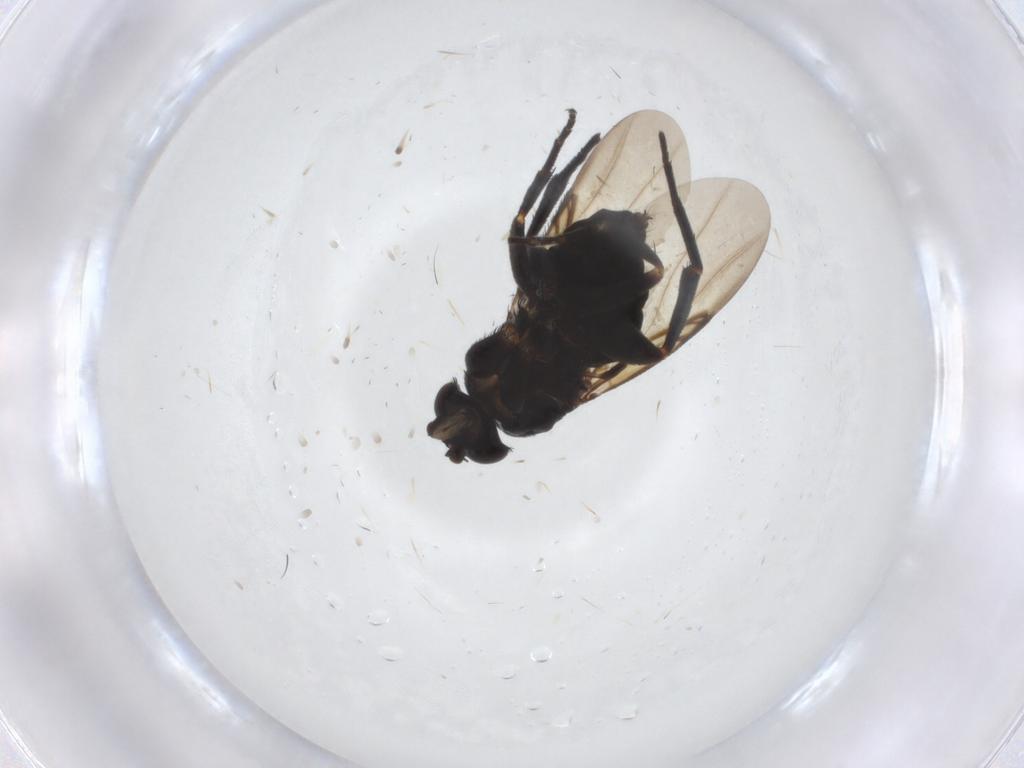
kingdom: Animalia
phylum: Arthropoda
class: Insecta
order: Diptera
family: Phoridae
